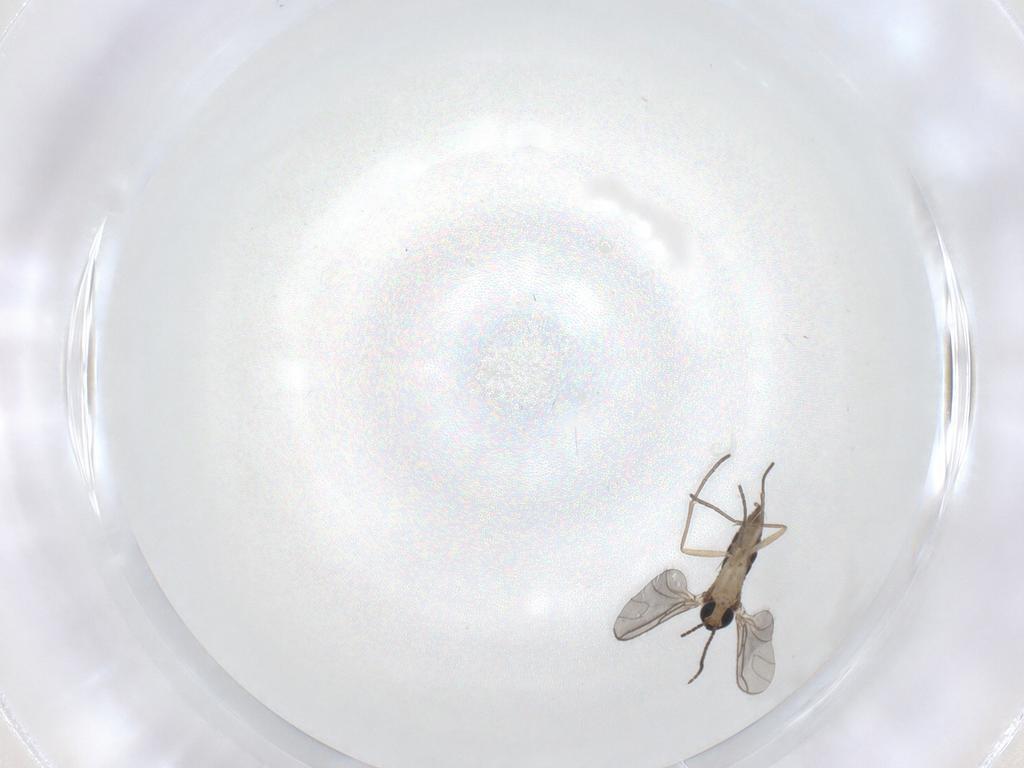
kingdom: Animalia
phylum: Arthropoda
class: Insecta
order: Diptera
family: Sciaridae
